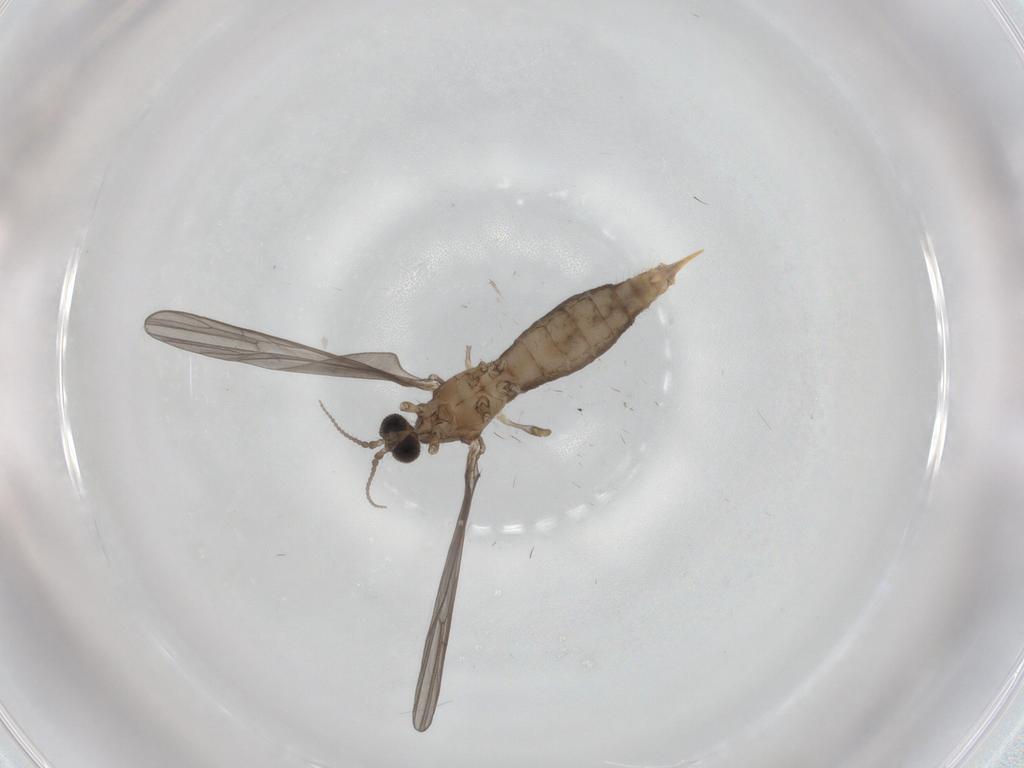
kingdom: Animalia
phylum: Arthropoda
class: Insecta
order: Diptera
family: Limoniidae
